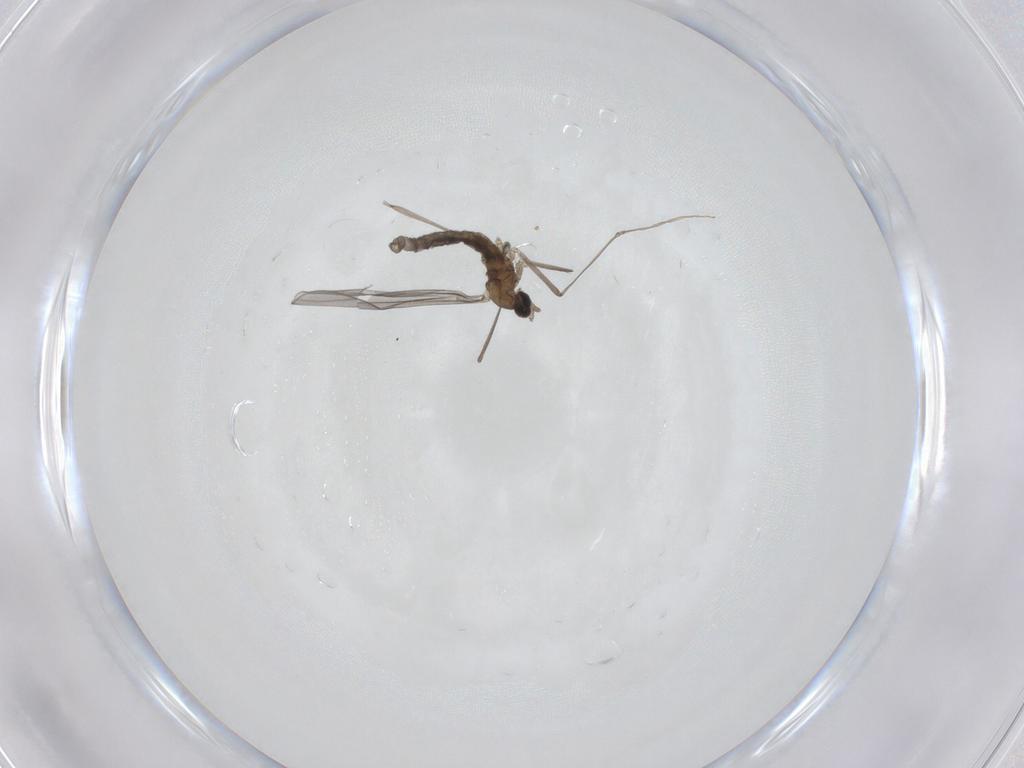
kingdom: Animalia
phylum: Arthropoda
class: Insecta
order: Diptera
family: Cecidomyiidae
